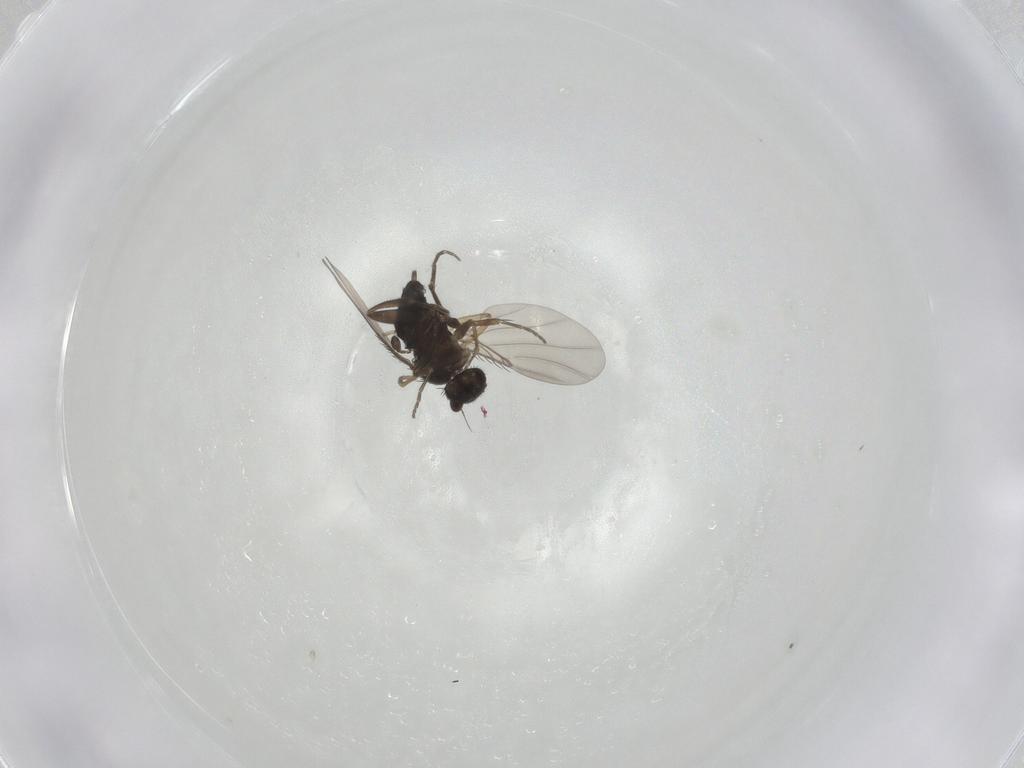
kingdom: Animalia
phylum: Arthropoda
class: Insecta
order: Diptera
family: Phoridae
